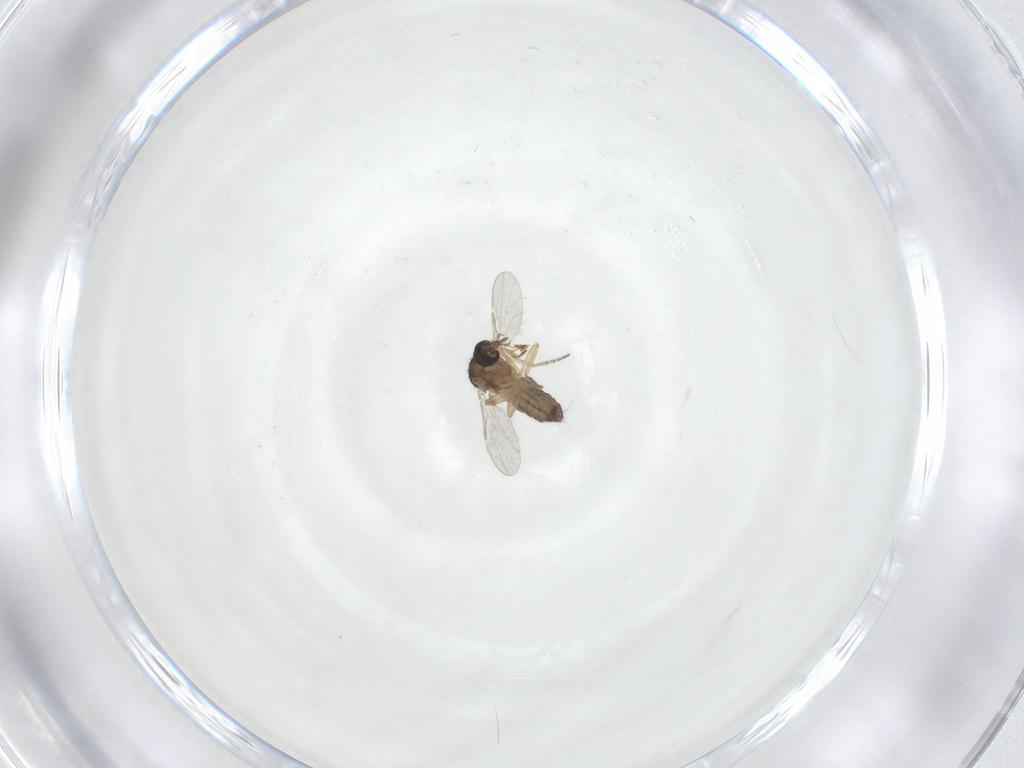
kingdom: Animalia
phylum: Arthropoda
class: Insecta
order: Diptera
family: Ceratopogonidae
